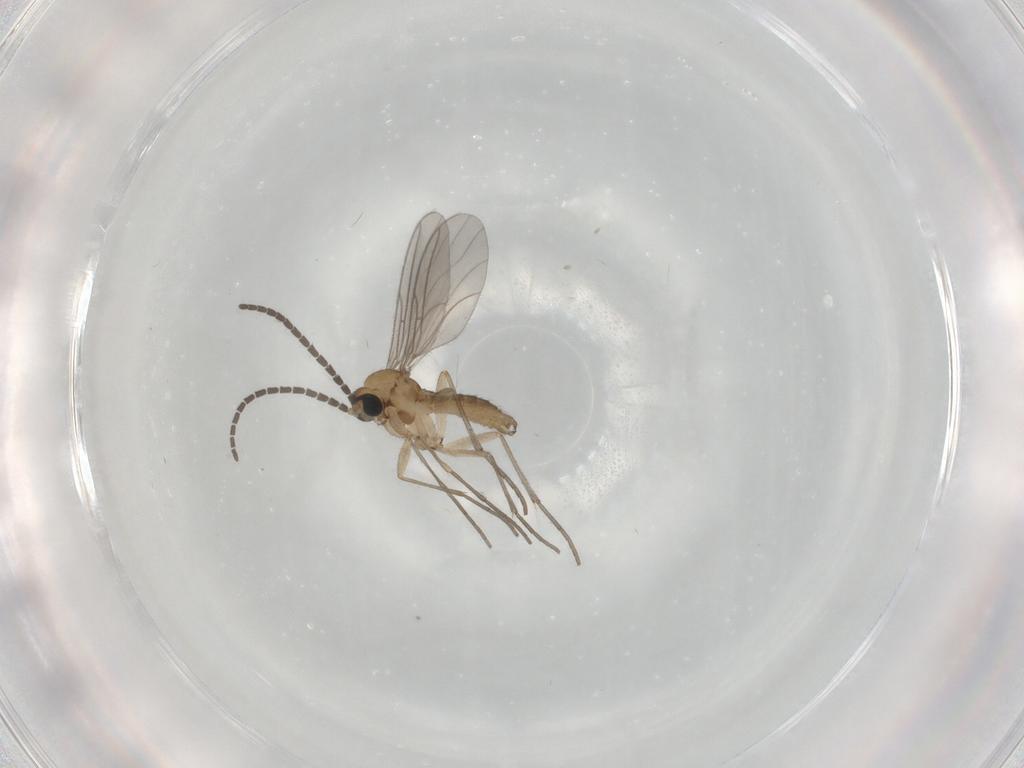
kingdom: Animalia
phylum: Arthropoda
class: Insecta
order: Diptera
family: Sciaridae
